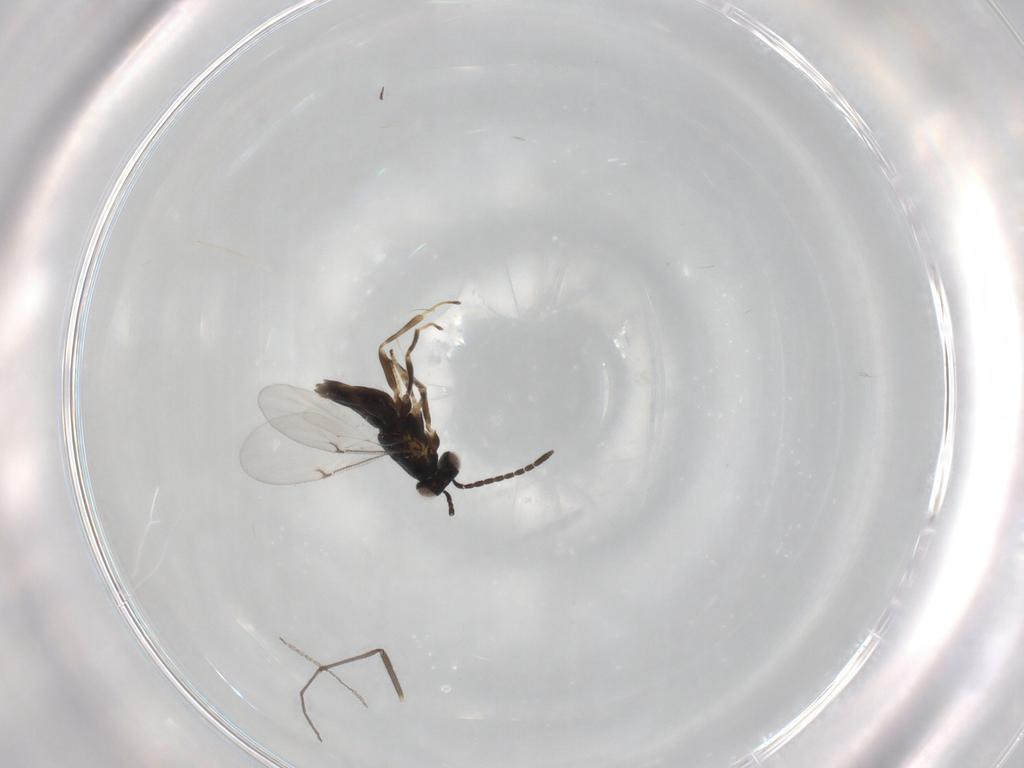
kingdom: Animalia
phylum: Arthropoda
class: Insecta
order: Hymenoptera
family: Encyrtidae
